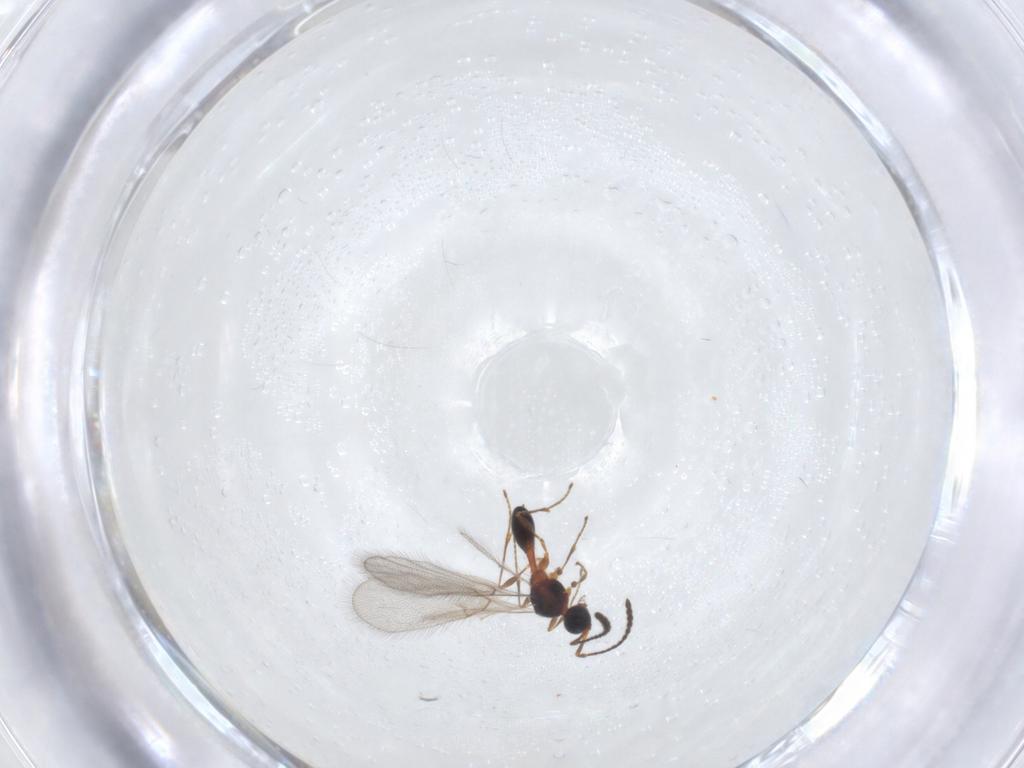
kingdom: Animalia
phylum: Arthropoda
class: Insecta
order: Hymenoptera
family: Diapriidae
